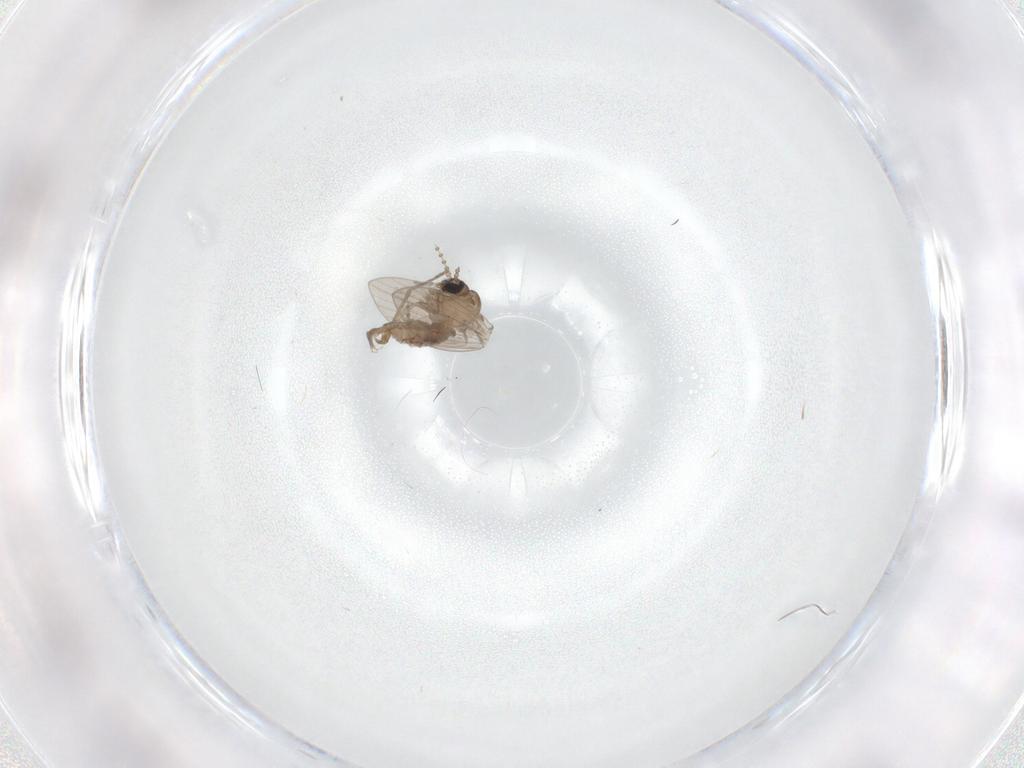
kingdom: Animalia
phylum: Arthropoda
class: Insecta
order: Diptera
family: Psychodidae
